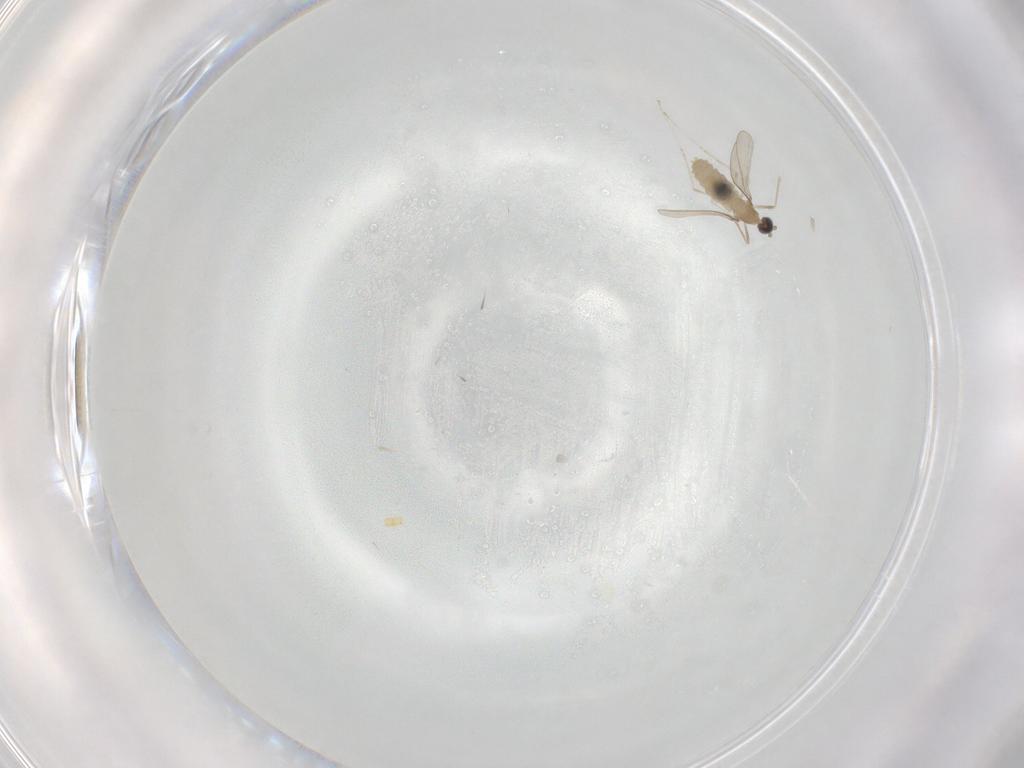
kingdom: Animalia
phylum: Arthropoda
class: Insecta
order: Diptera
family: Cecidomyiidae
